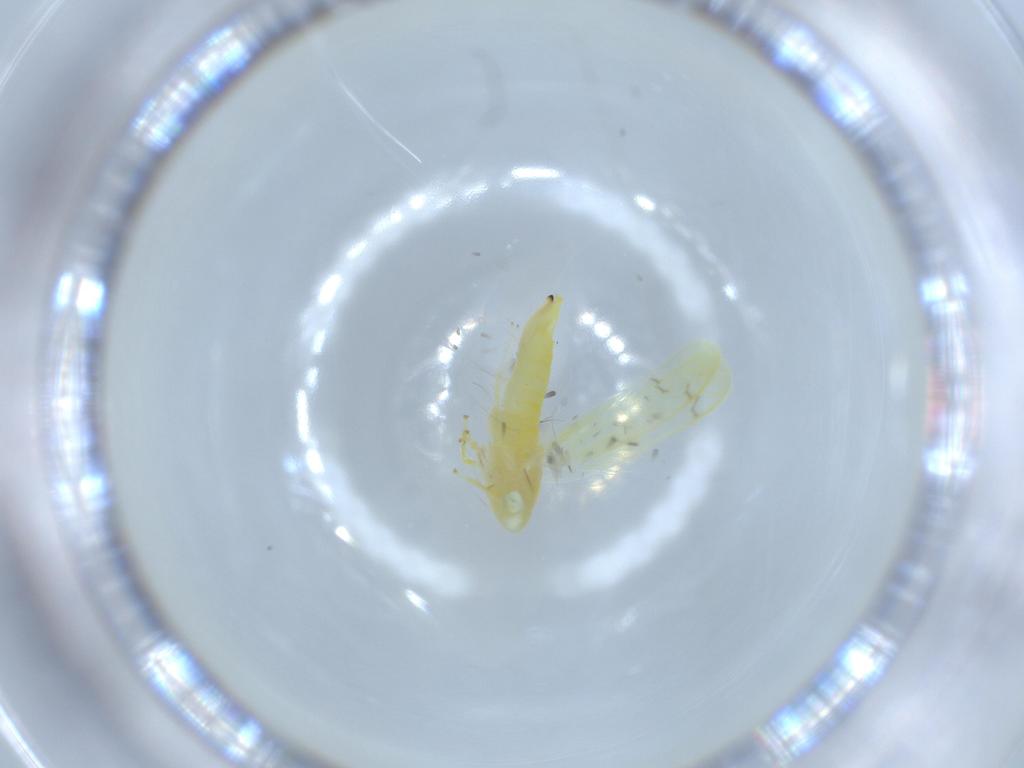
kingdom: Animalia
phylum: Arthropoda
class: Insecta
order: Hemiptera
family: Cicadellidae
